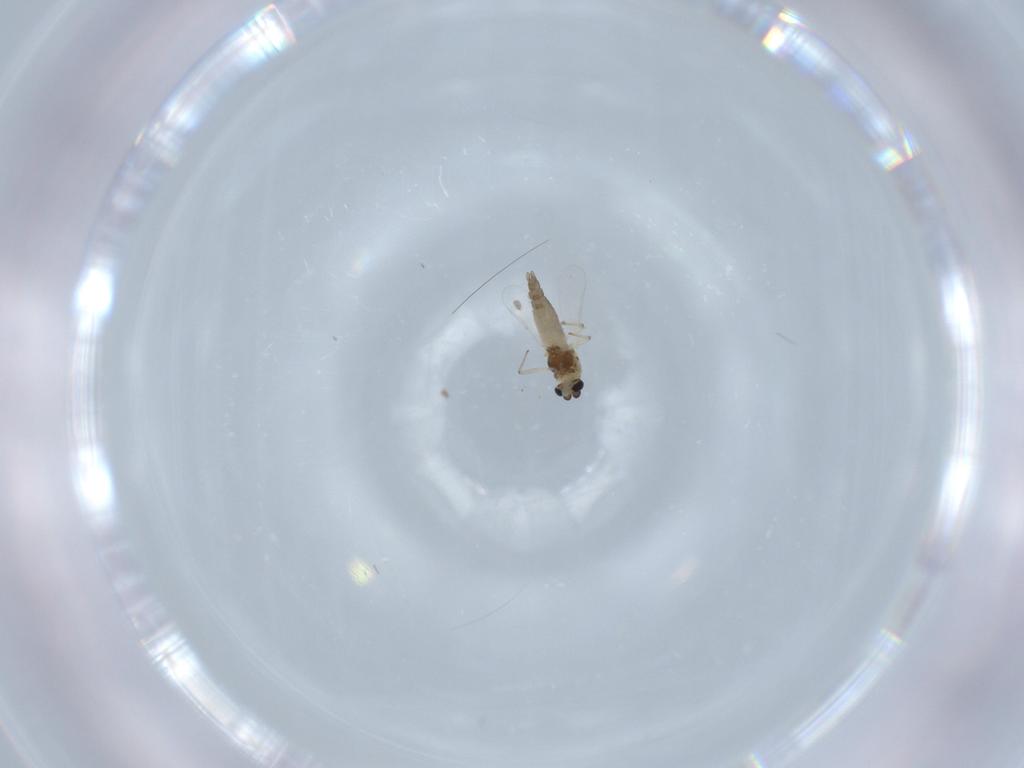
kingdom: Animalia
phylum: Arthropoda
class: Insecta
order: Diptera
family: Chironomidae
